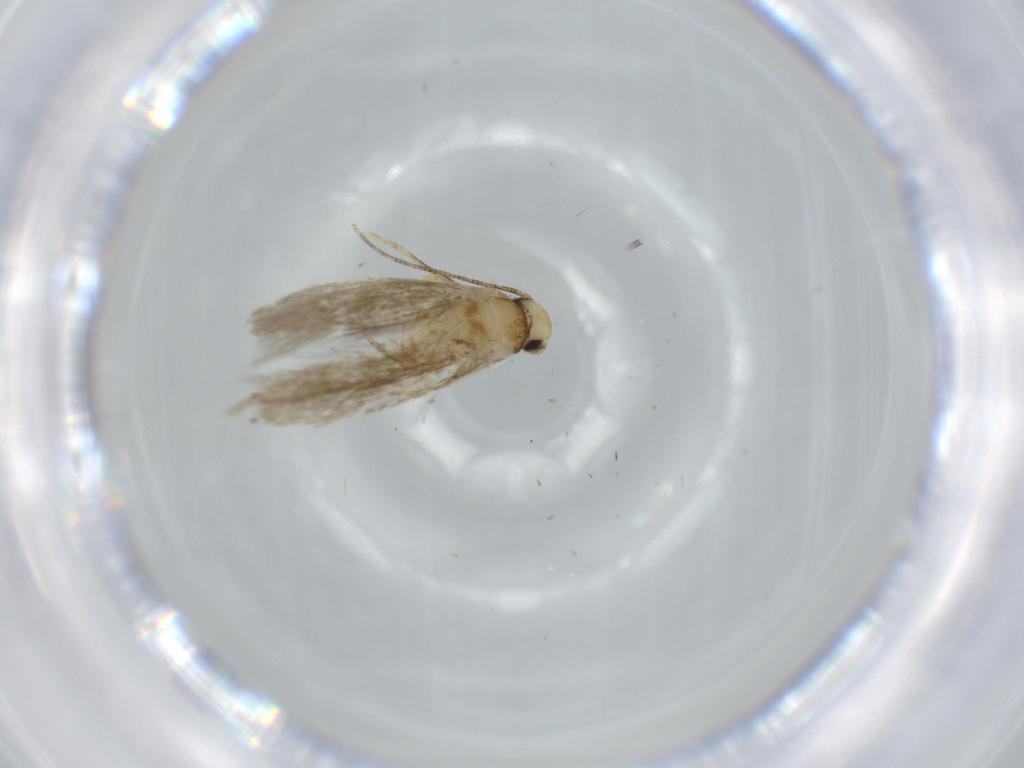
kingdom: Animalia
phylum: Arthropoda
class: Insecta
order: Lepidoptera
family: Tineidae
